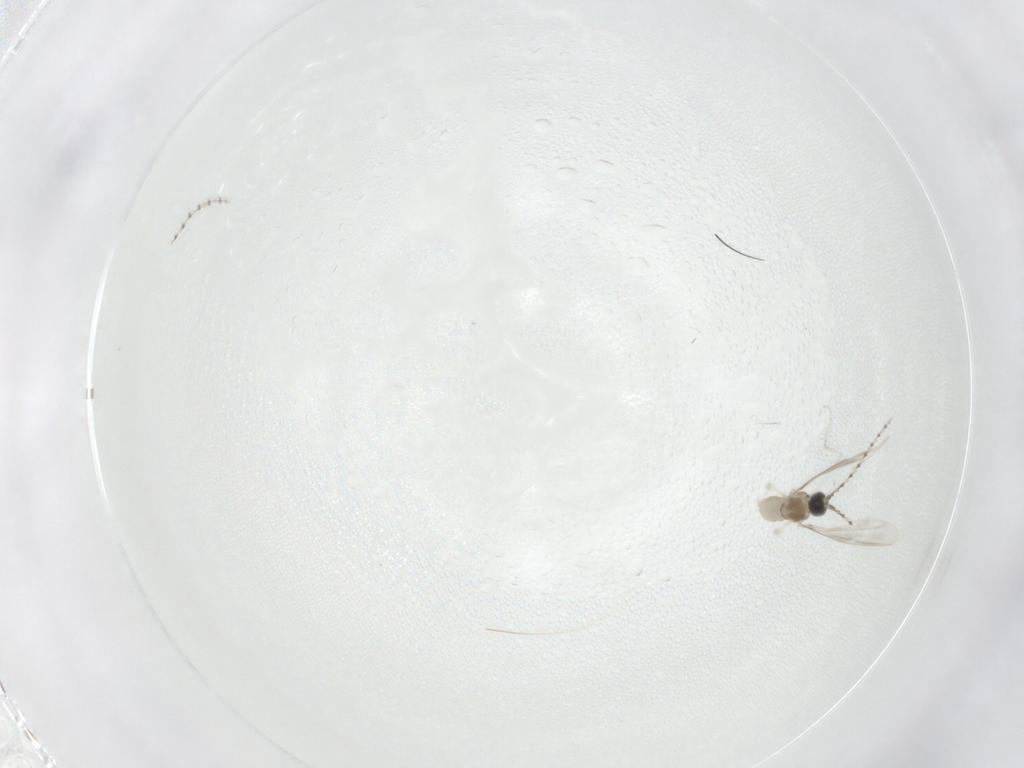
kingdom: Animalia
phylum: Arthropoda
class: Insecta
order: Diptera
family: Cecidomyiidae
